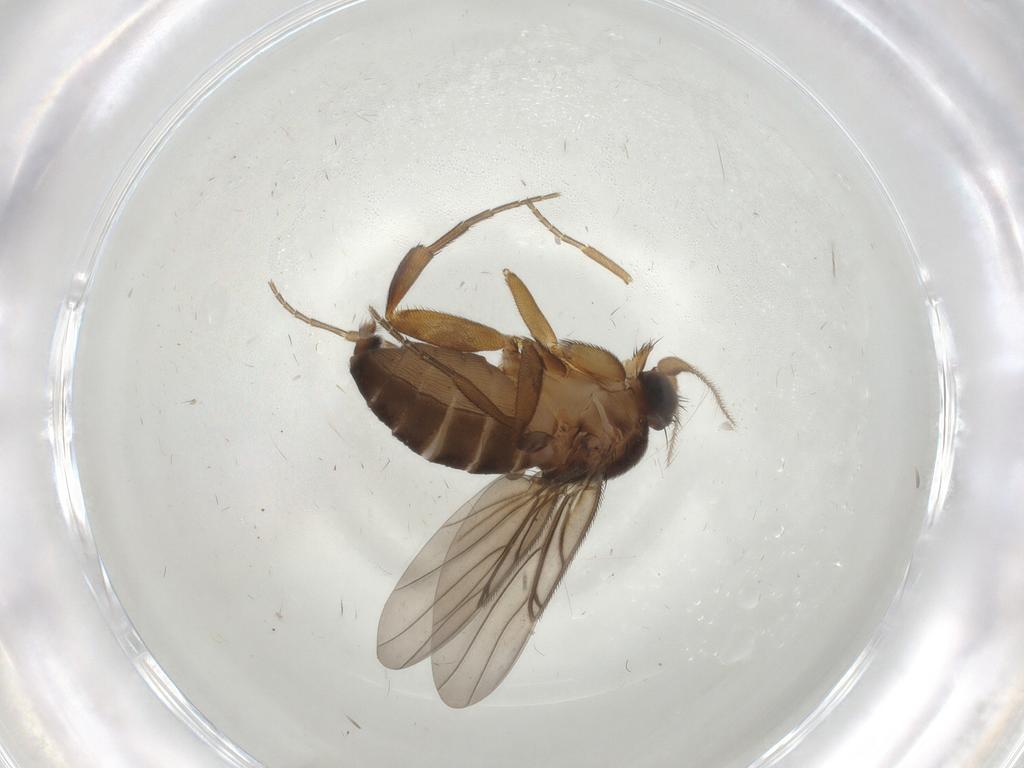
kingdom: Animalia
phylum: Arthropoda
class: Insecta
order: Diptera
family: Phoridae
